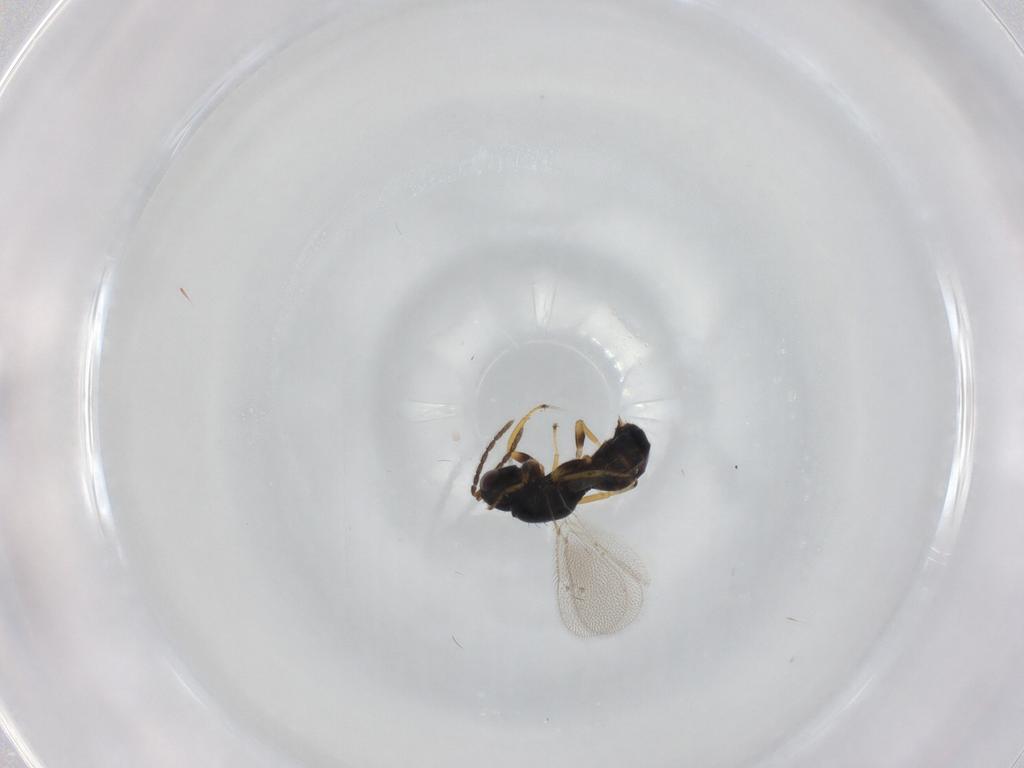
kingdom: Animalia
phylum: Arthropoda
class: Insecta
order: Hymenoptera
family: Eulophidae
